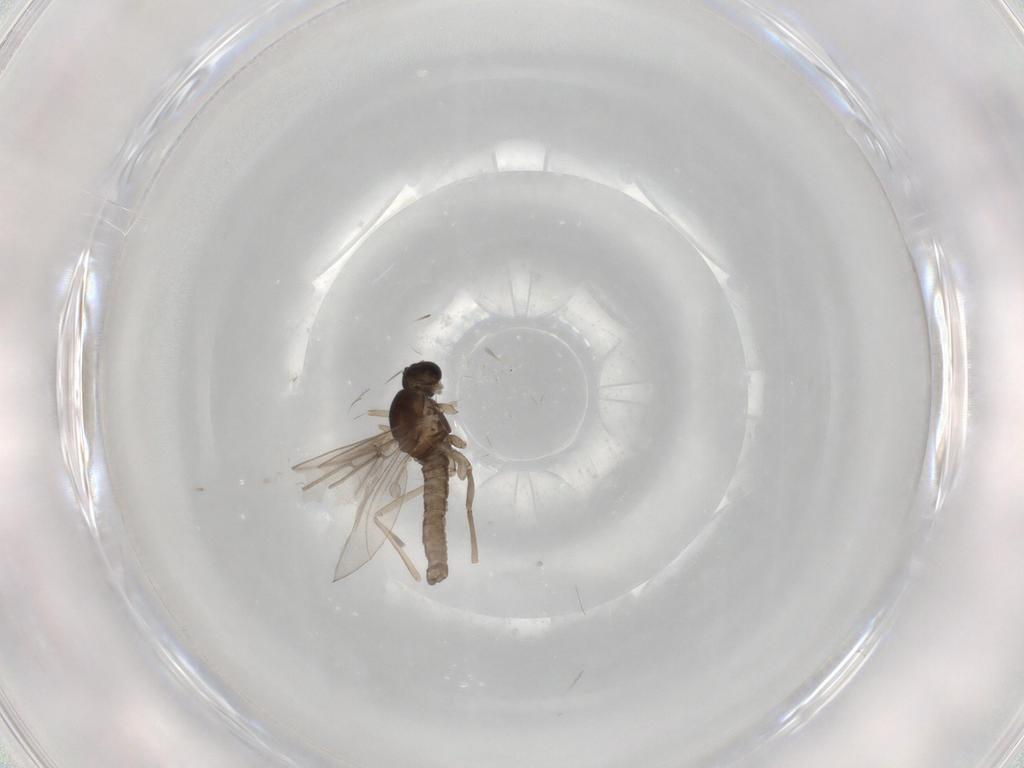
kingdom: Animalia
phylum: Arthropoda
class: Insecta
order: Diptera
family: Cecidomyiidae
